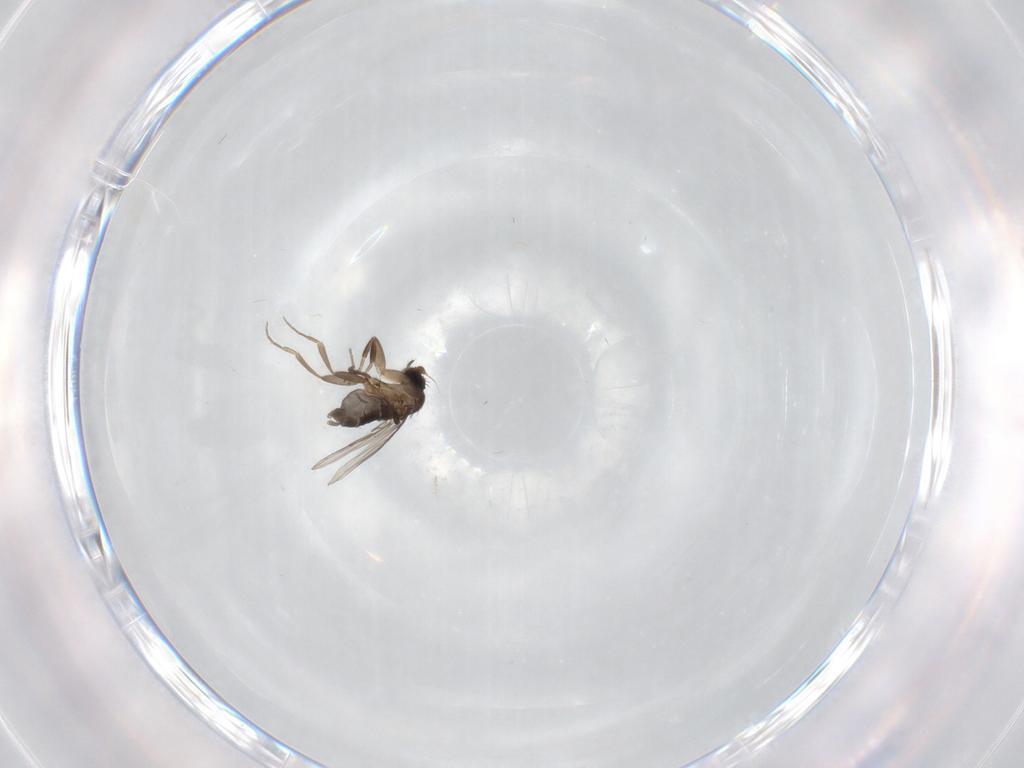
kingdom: Animalia
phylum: Arthropoda
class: Insecta
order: Diptera
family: Phoridae
